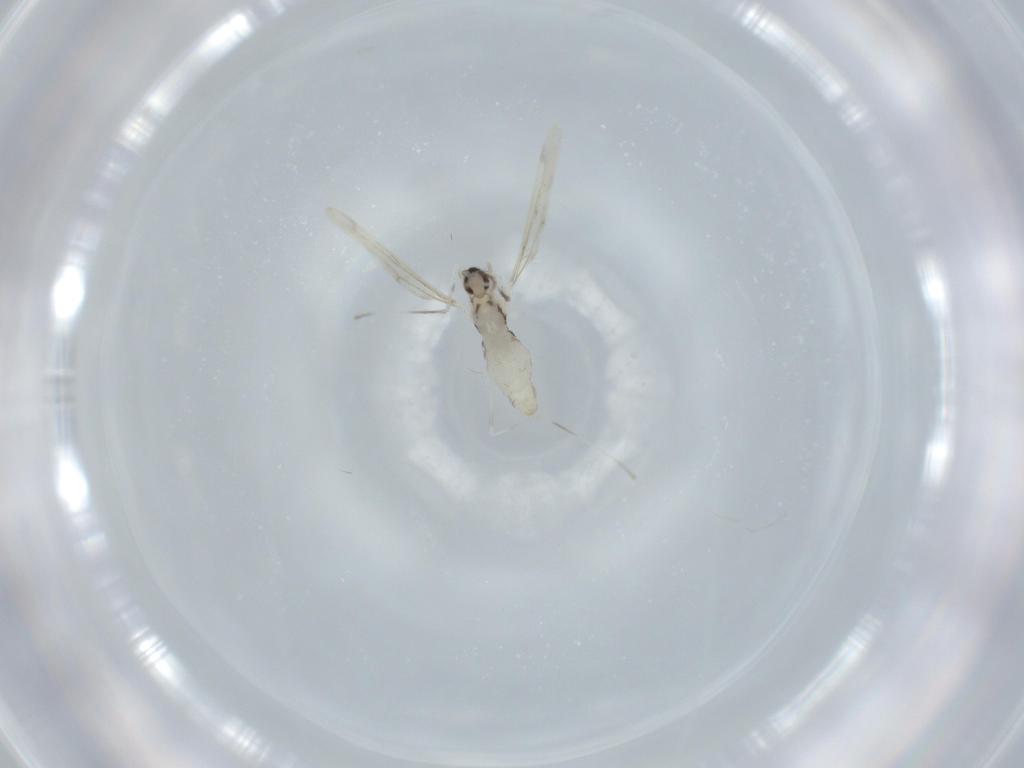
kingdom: Animalia
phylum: Arthropoda
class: Insecta
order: Diptera
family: Cecidomyiidae
